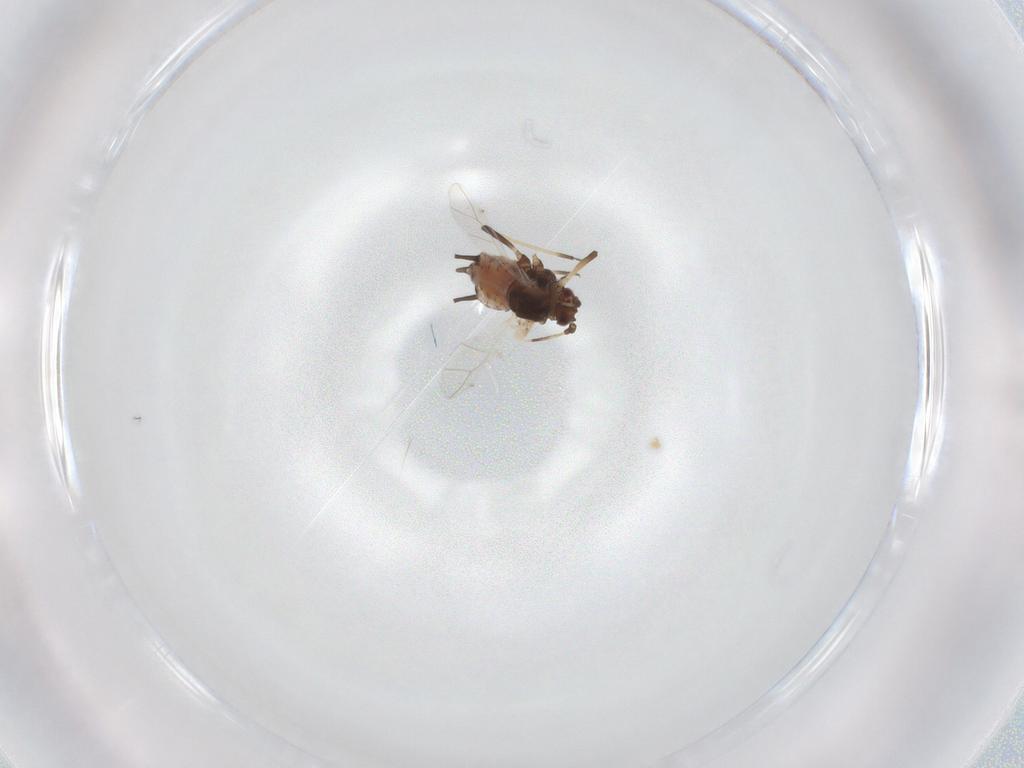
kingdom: Animalia
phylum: Arthropoda
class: Insecta
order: Hemiptera
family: Aphididae
